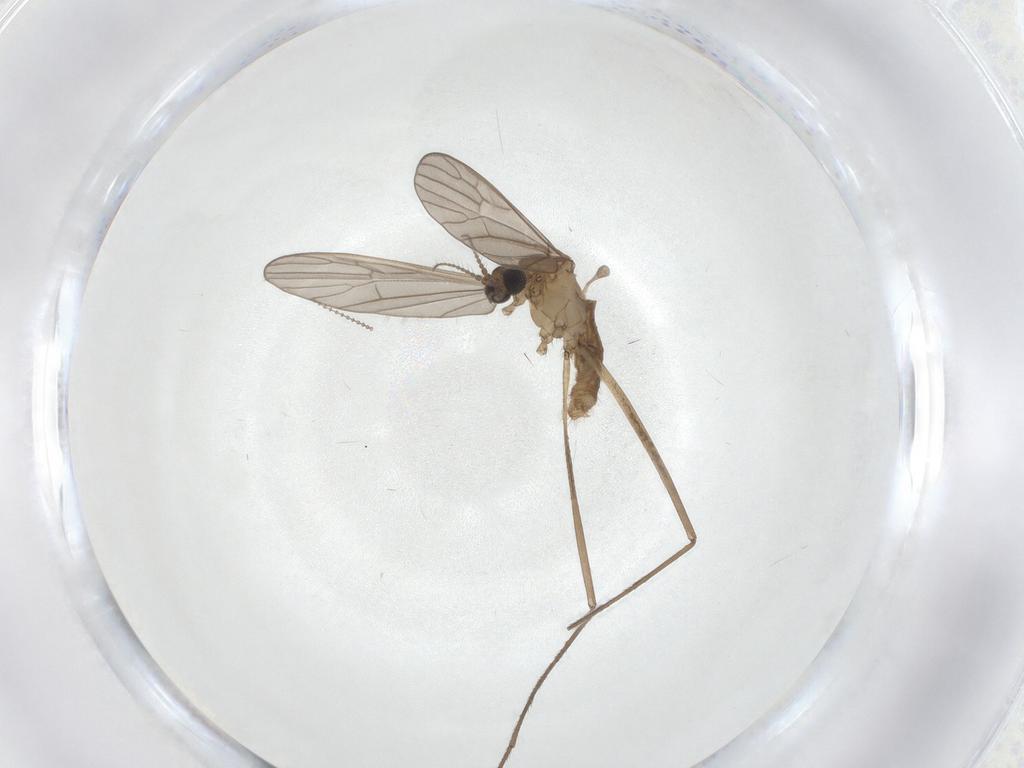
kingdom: Animalia
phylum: Arthropoda
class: Insecta
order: Diptera
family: Limoniidae
